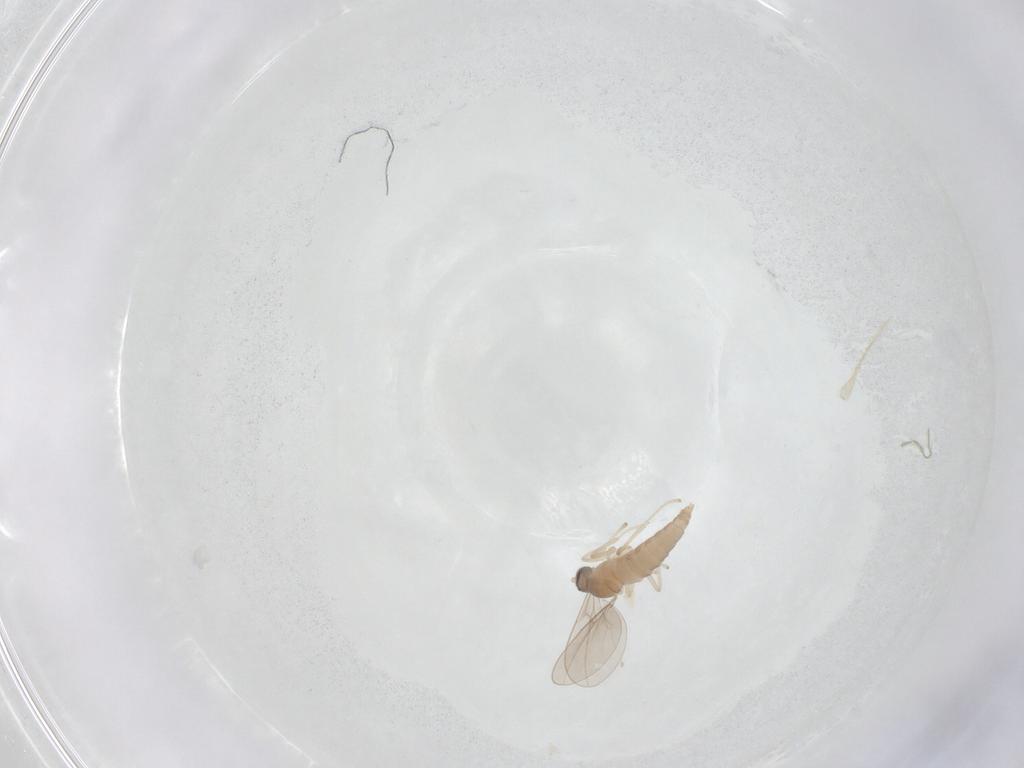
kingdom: Animalia
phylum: Arthropoda
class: Insecta
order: Diptera
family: Cecidomyiidae
